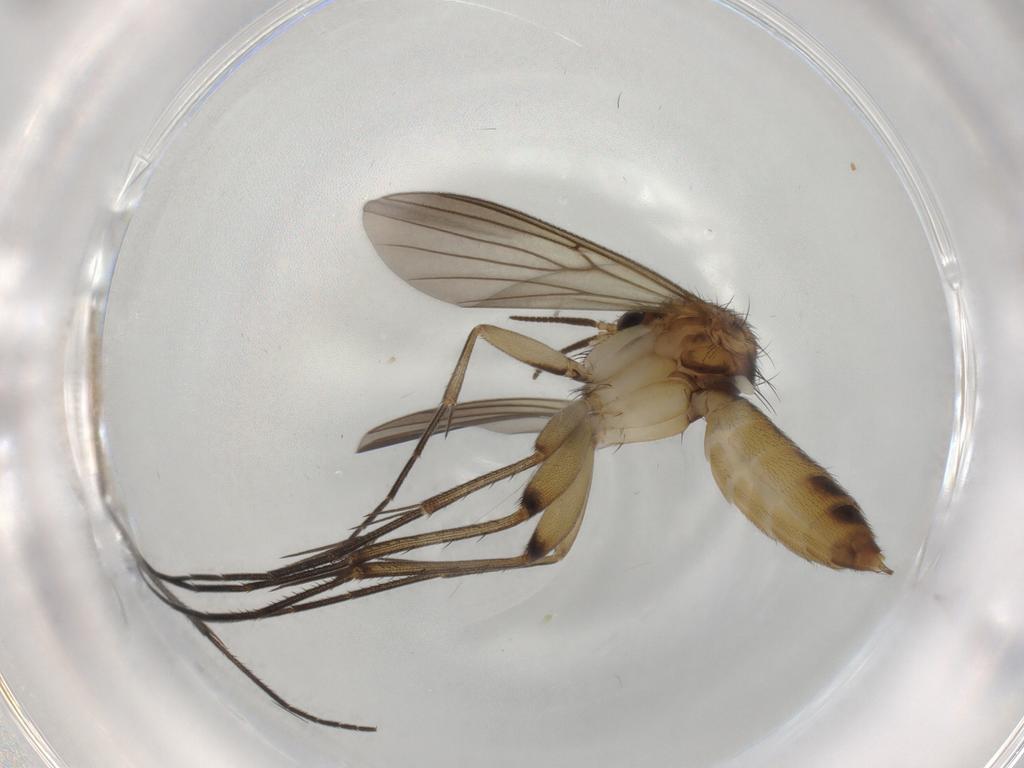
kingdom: Animalia
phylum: Arthropoda
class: Insecta
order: Diptera
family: Mycetophilidae
